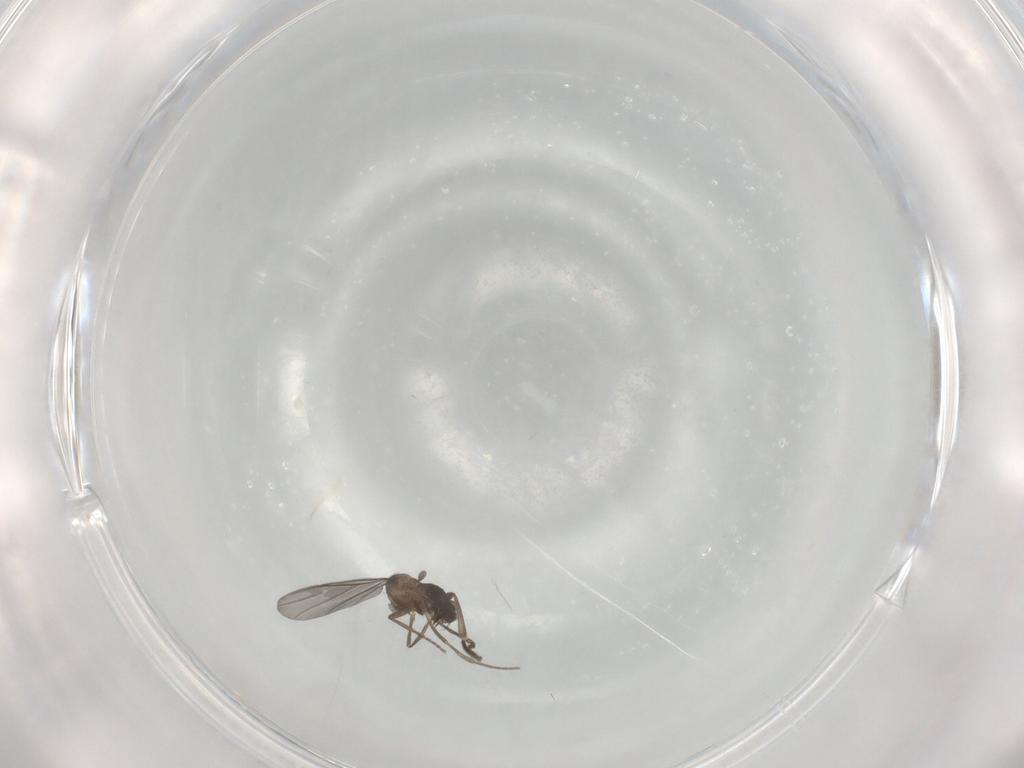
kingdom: Animalia
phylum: Arthropoda
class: Insecta
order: Diptera
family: Phoridae
